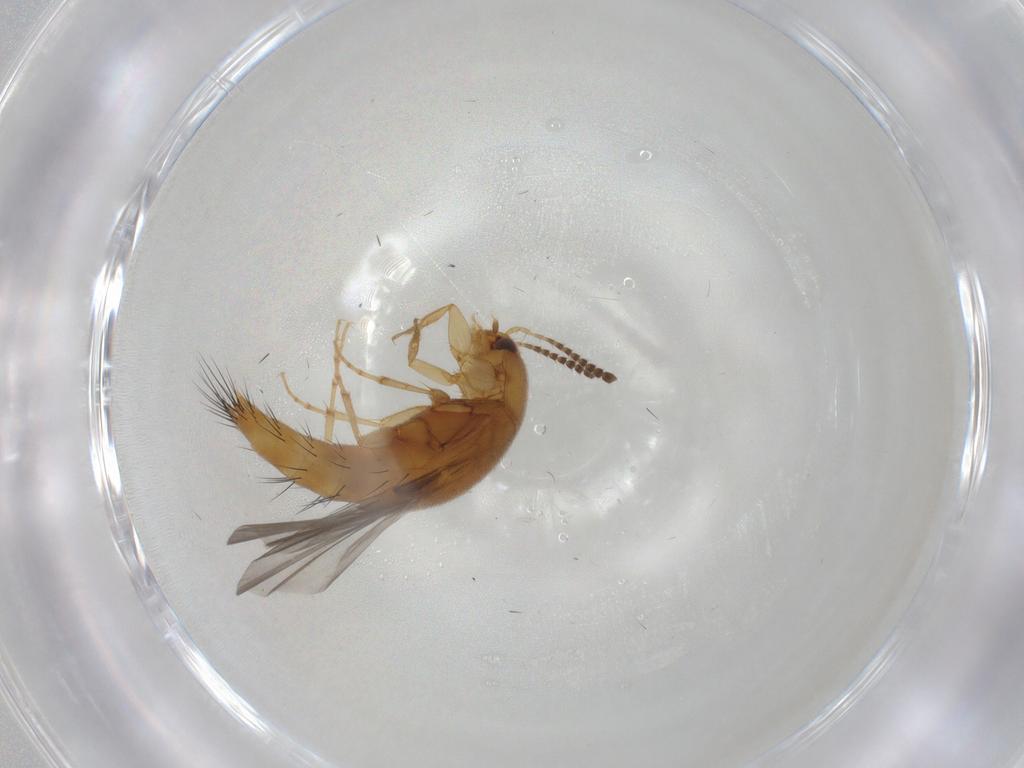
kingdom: Animalia
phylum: Arthropoda
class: Insecta
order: Coleoptera
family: Staphylinidae
